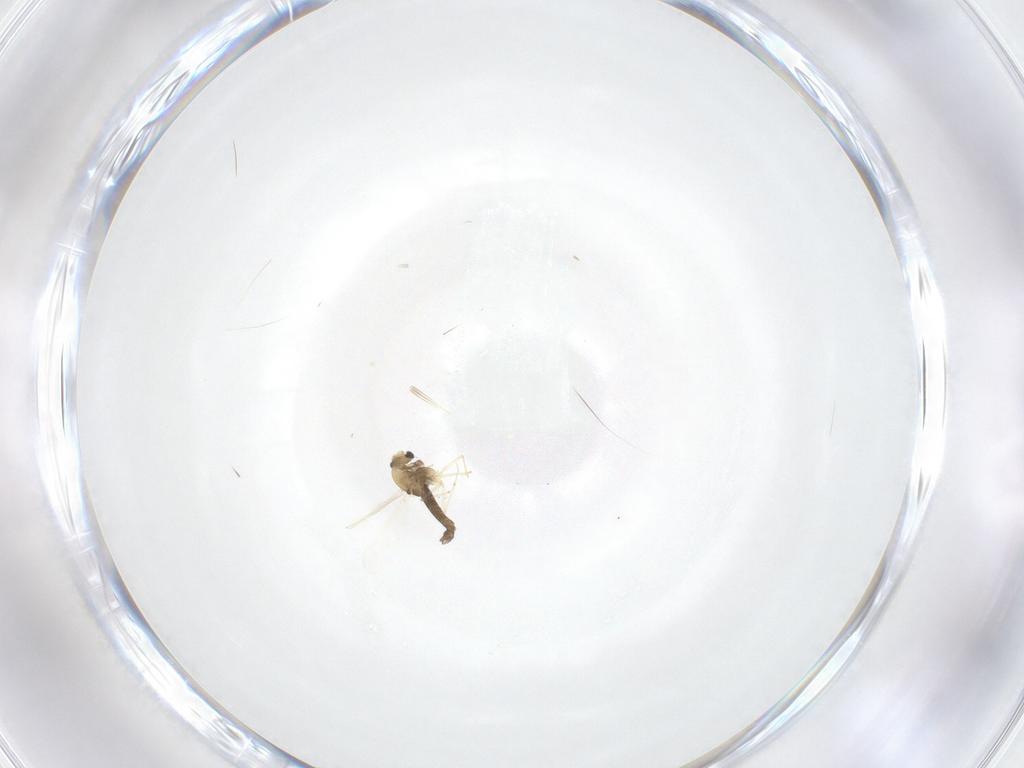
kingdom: Animalia
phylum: Arthropoda
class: Insecta
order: Diptera
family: Chironomidae
